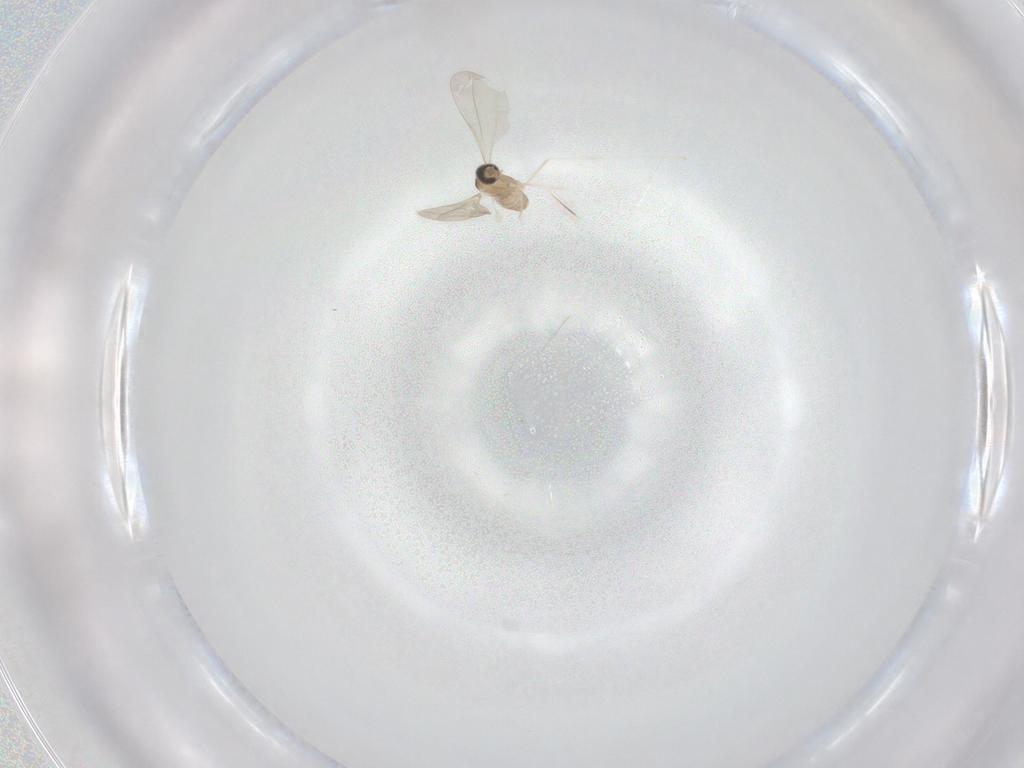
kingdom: Animalia
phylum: Arthropoda
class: Insecta
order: Diptera
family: Cecidomyiidae
